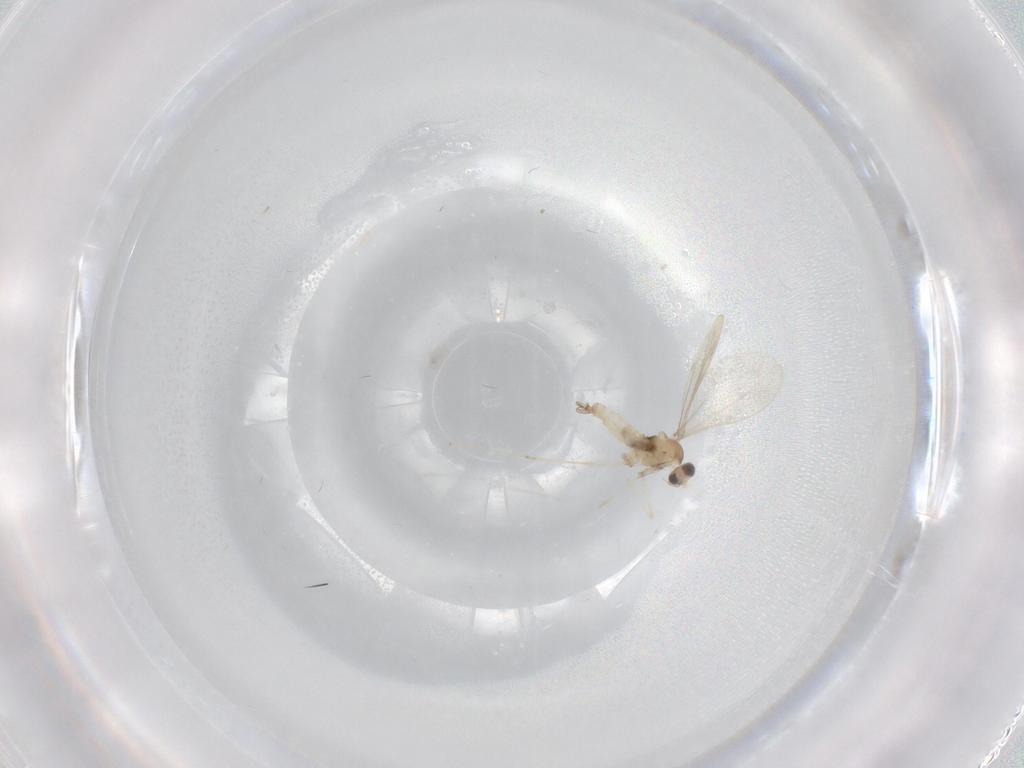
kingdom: Animalia
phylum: Arthropoda
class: Insecta
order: Diptera
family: Cecidomyiidae
